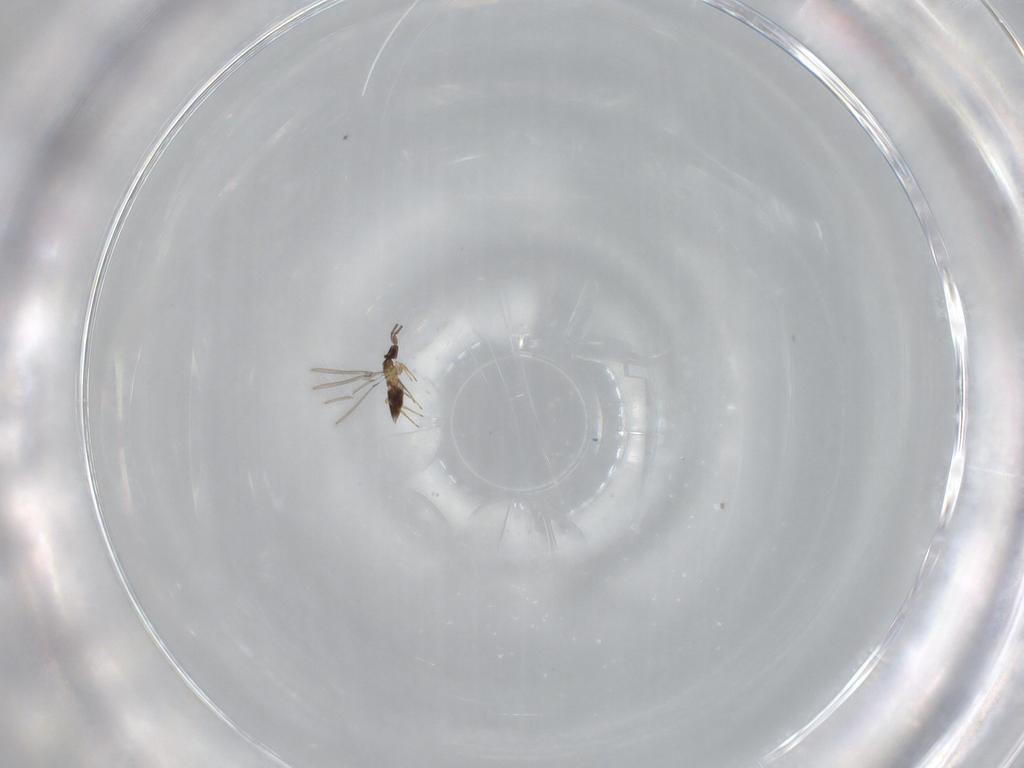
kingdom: Animalia
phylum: Arthropoda
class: Insecta
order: Hymenoptera
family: Mymaridae
